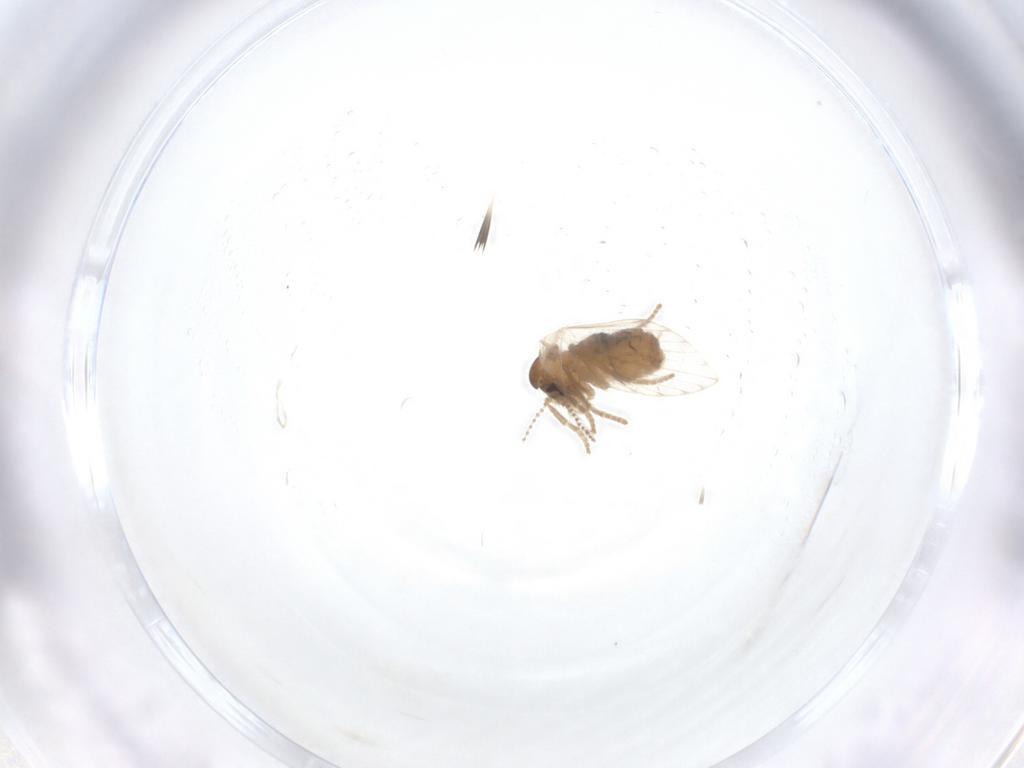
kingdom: Animalia
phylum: Arthropoda
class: Insecta
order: Diptera
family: Psychodidae
